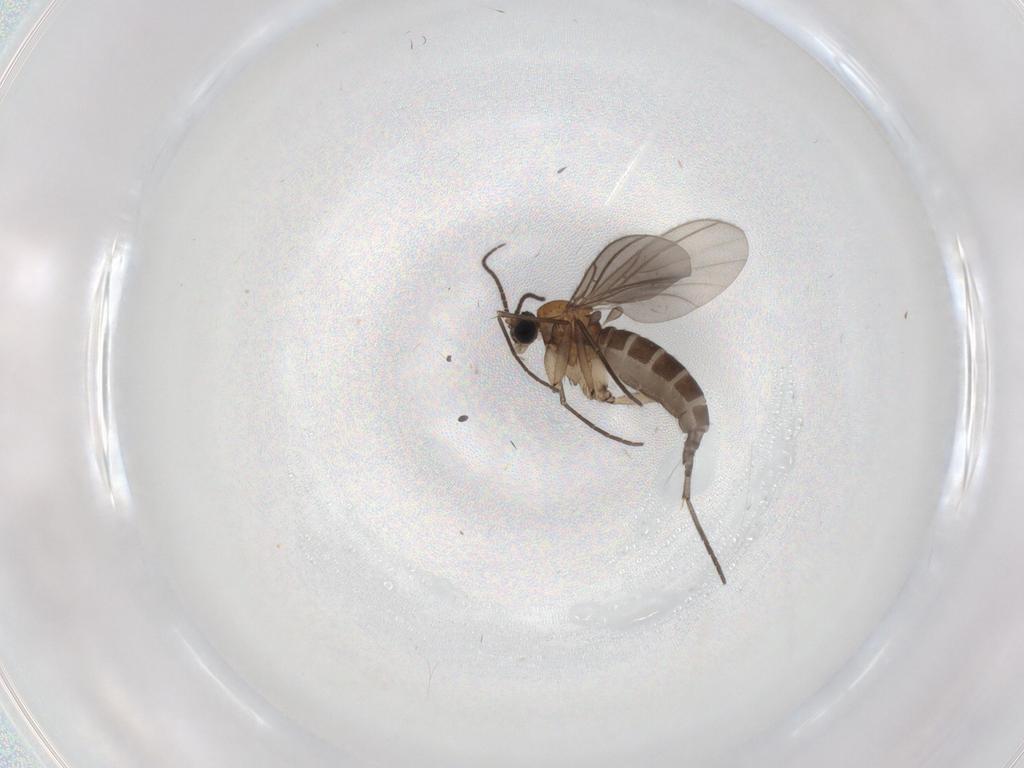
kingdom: Animalia
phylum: Arthropoda
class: Insecta
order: Diptera
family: Sciaridae
